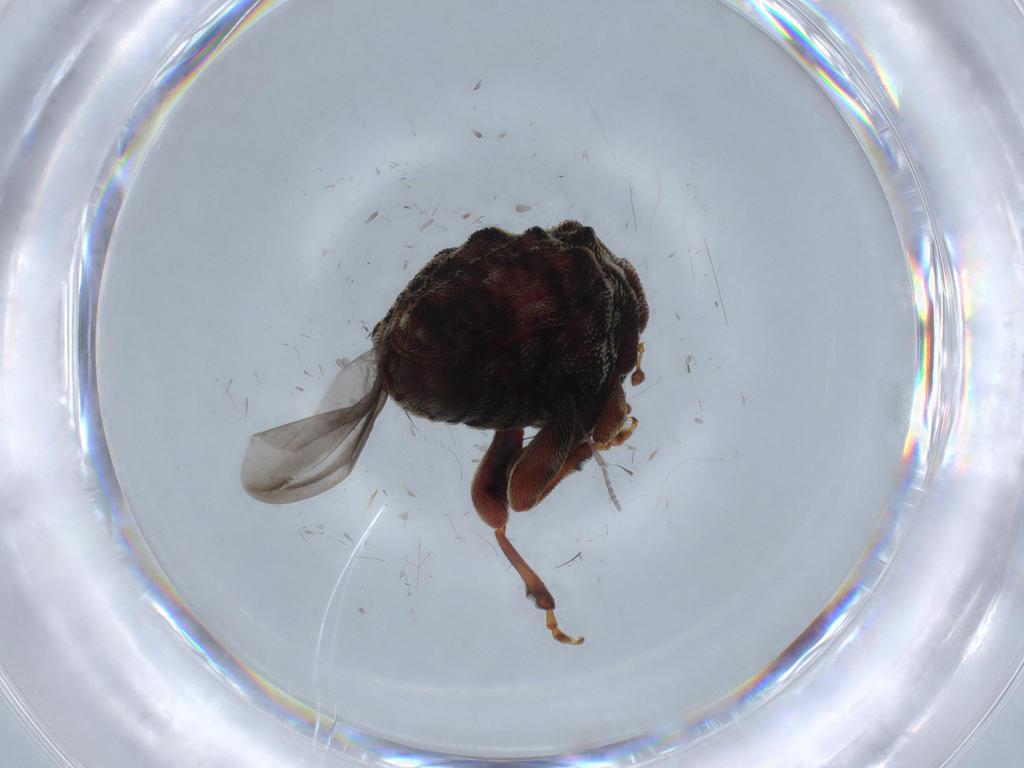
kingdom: Animalia
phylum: Arthropoda
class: Insecta
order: Coleoptera
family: Curculionidae
